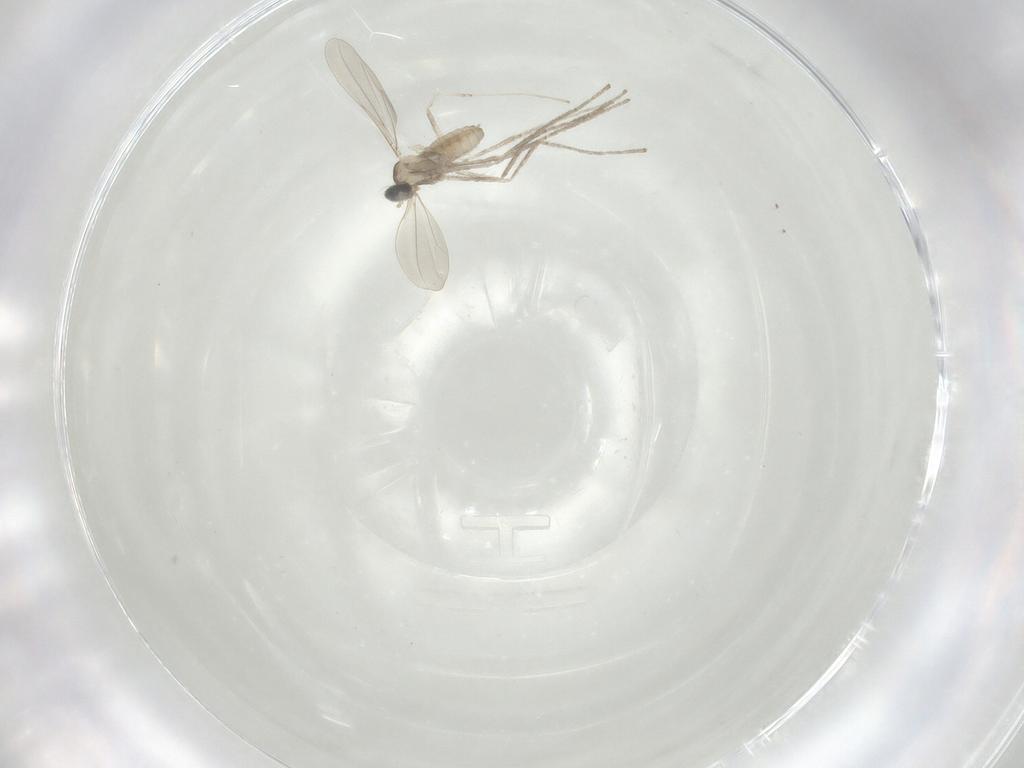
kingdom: Animalia
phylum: Arthropoda
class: Insecta
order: Diptera
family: Cecidomyiidae
